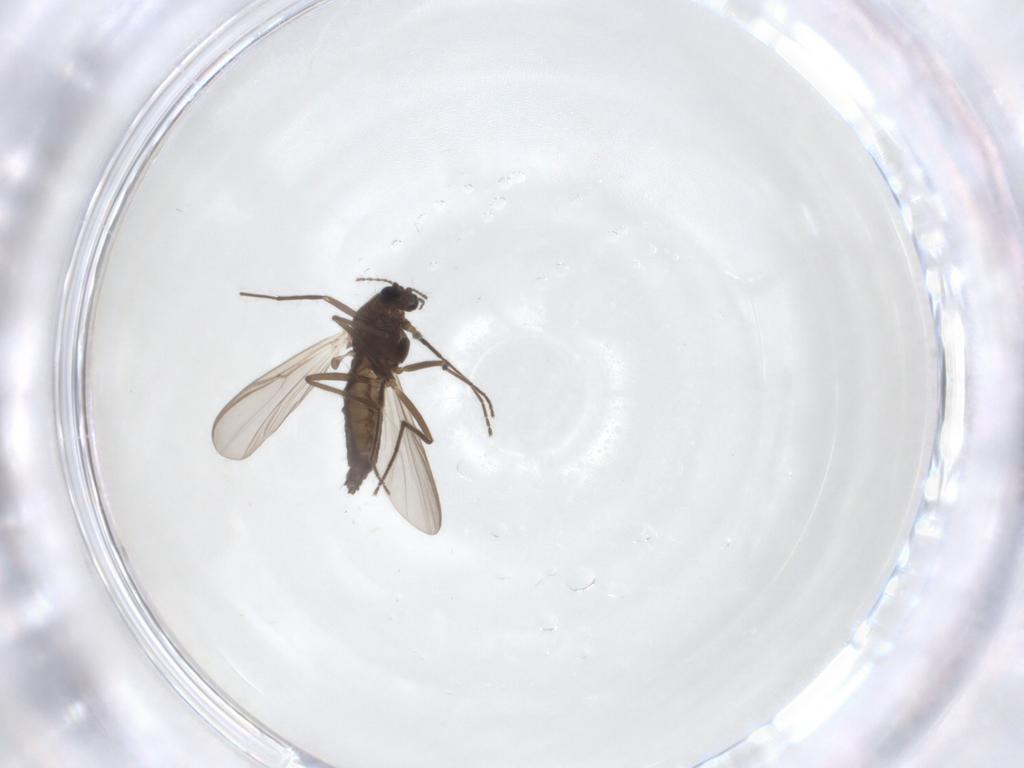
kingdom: Animalia
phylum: Arthropoda
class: Insecta
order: Diptera
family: Chironomidae
